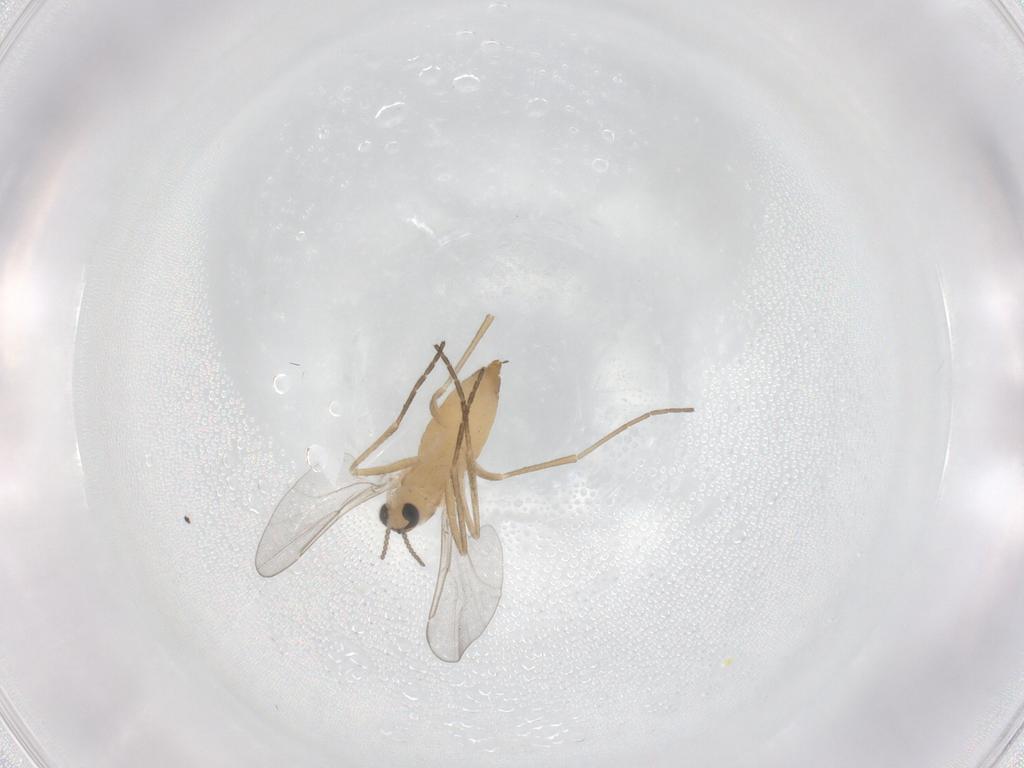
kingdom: Animalia
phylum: Arthropoda
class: Insecta
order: Diptera
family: Cecidomyiidae
